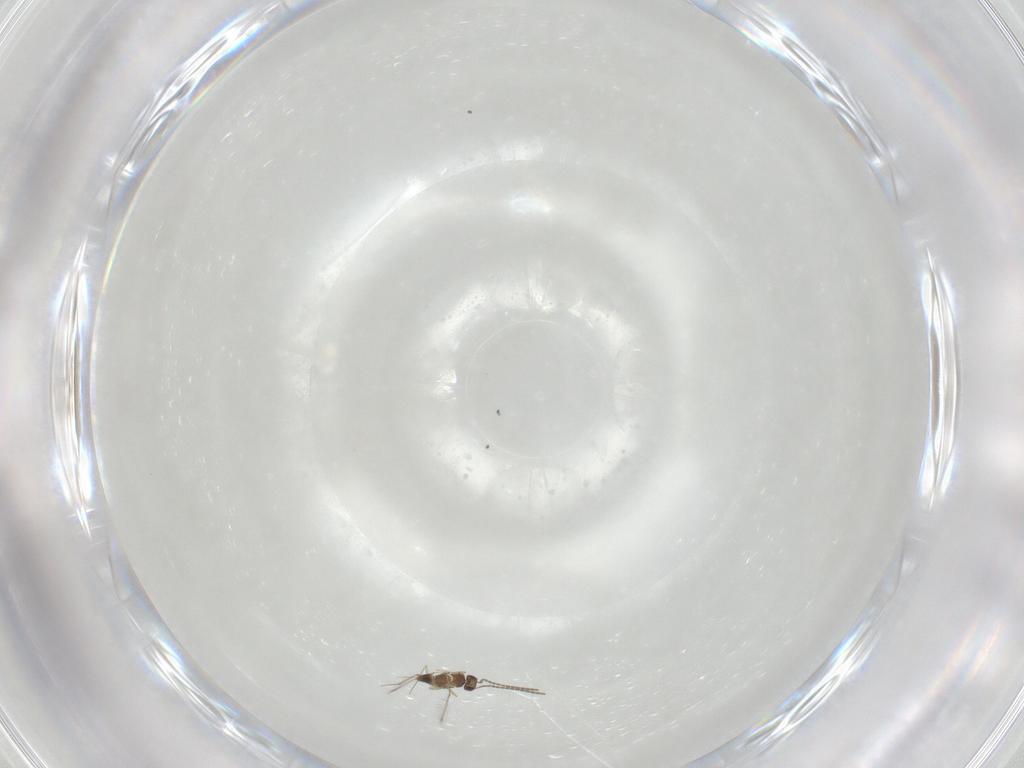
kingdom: Animalia
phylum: Arthropoda
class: Insecta
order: Hymenoptera
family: Mymaridae
